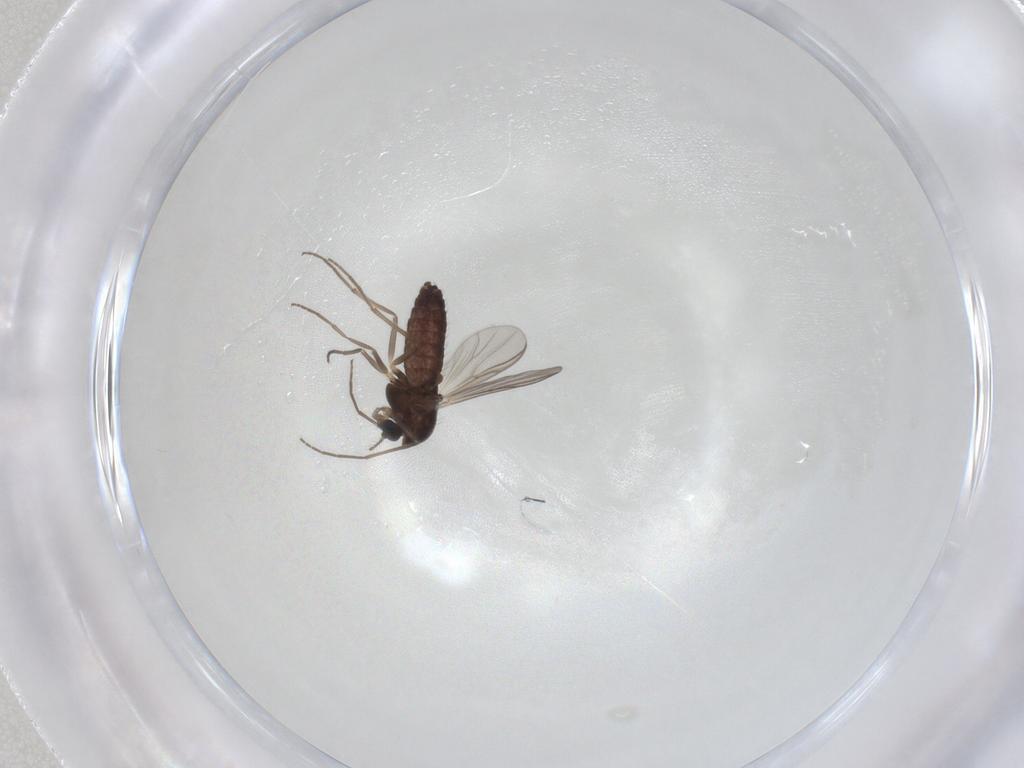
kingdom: Animalia
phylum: Arthropoda
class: Insecta
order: Diptera
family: Chironomidae
